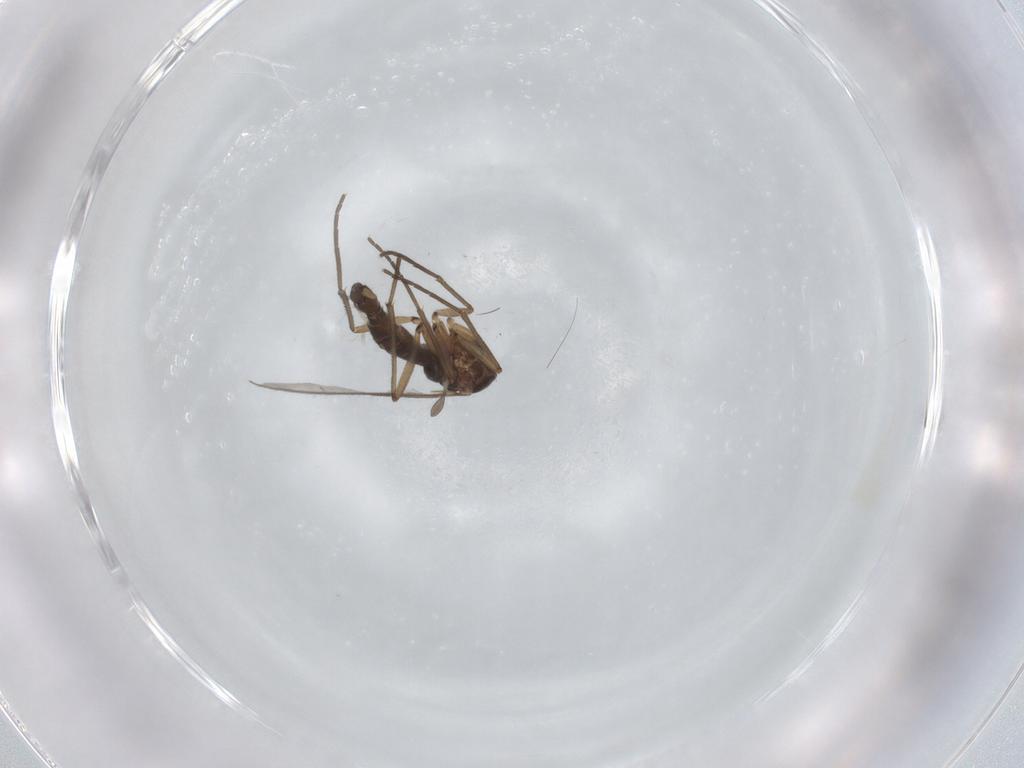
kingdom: Animalia
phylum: Arthropoda
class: Insecta
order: Diptera
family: Sciaridae
